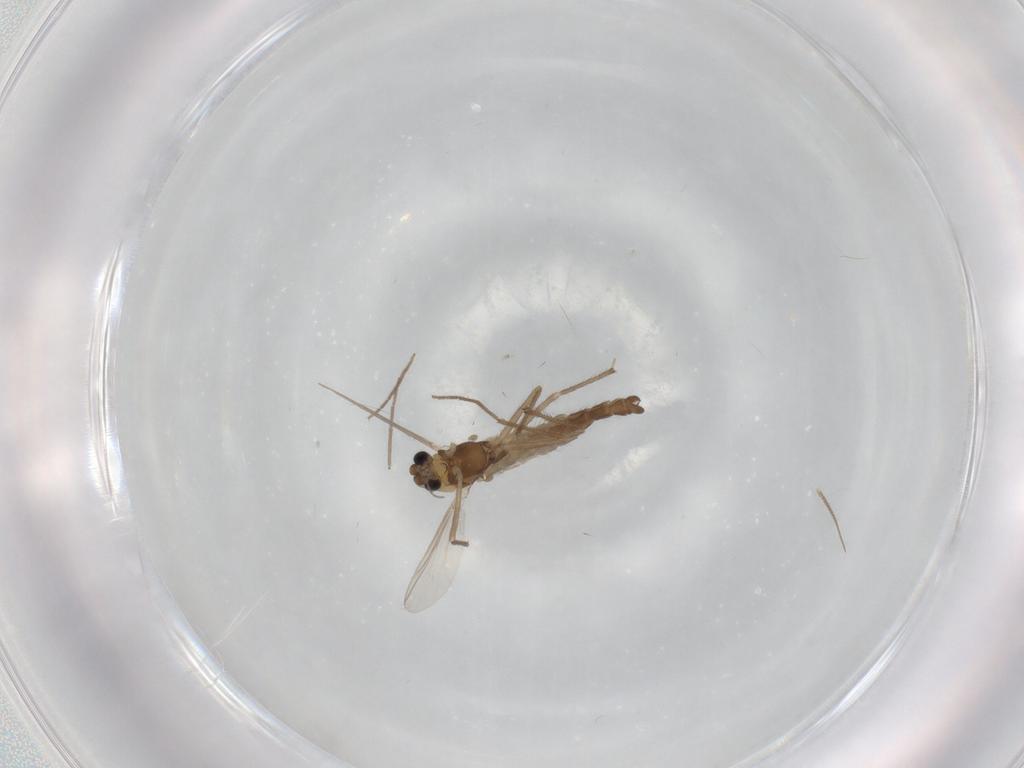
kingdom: Animalia
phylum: Arthropoda
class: Insecta
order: Diptera
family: Chironomidae
